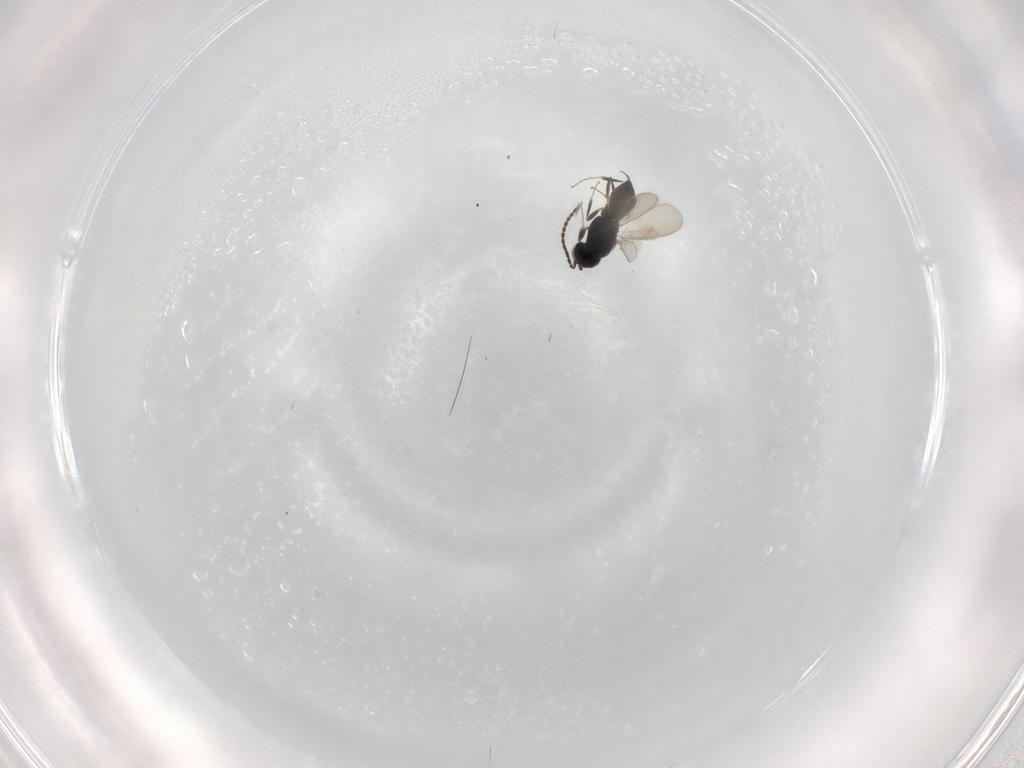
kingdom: Animalia
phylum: Arthropoda
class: Insecta
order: Hymenoptera
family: Scelionidae
